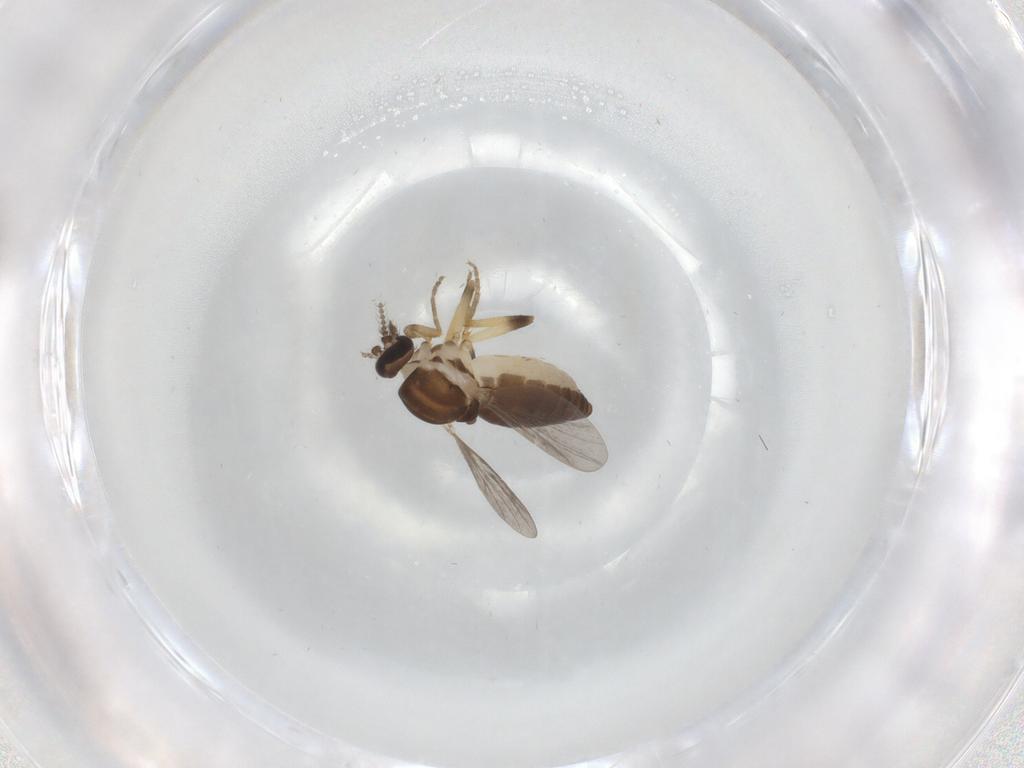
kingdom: Animalia
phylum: Arthropoda
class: Insecta
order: Diptera
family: Ceratopogonidae
